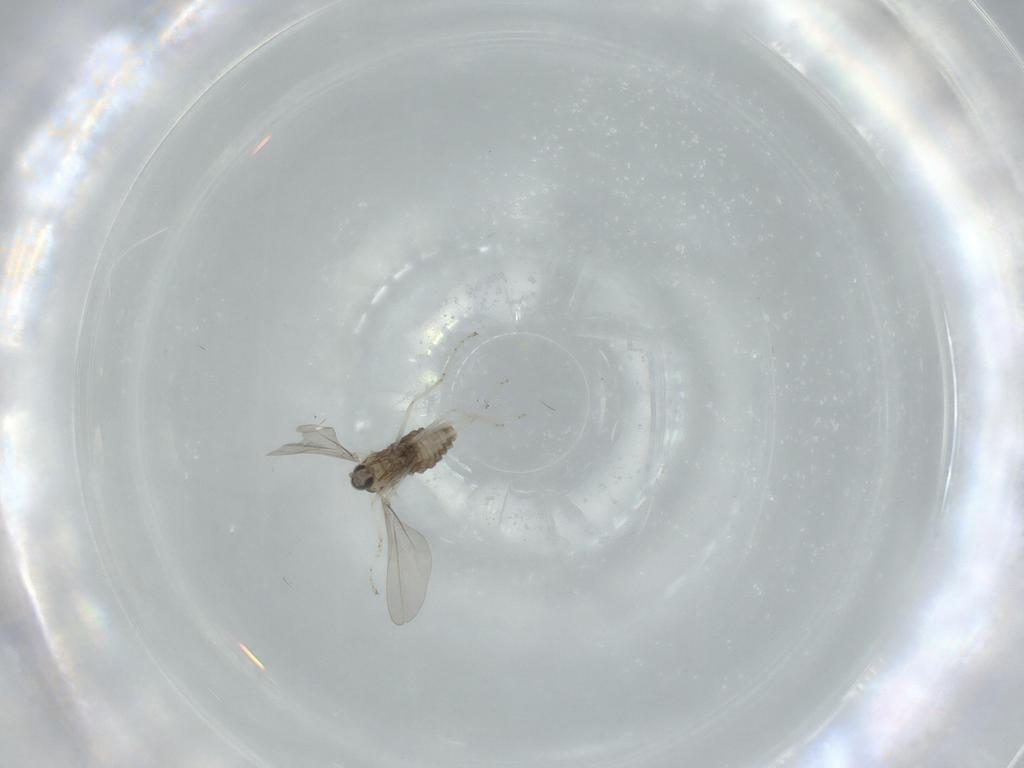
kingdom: Animalia
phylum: Arthropoda
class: Insecta
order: Diptera
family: Cecidomyiidae
